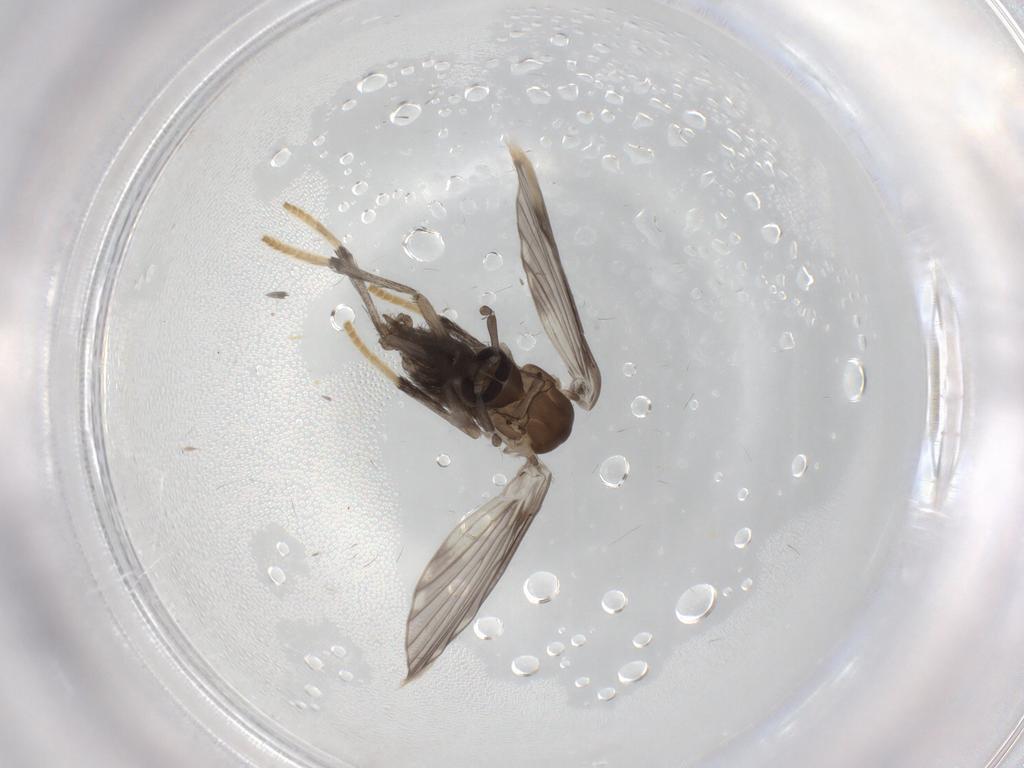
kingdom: Animalia
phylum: Arthropoda
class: Insecta
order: Diptera
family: Psychodidae
